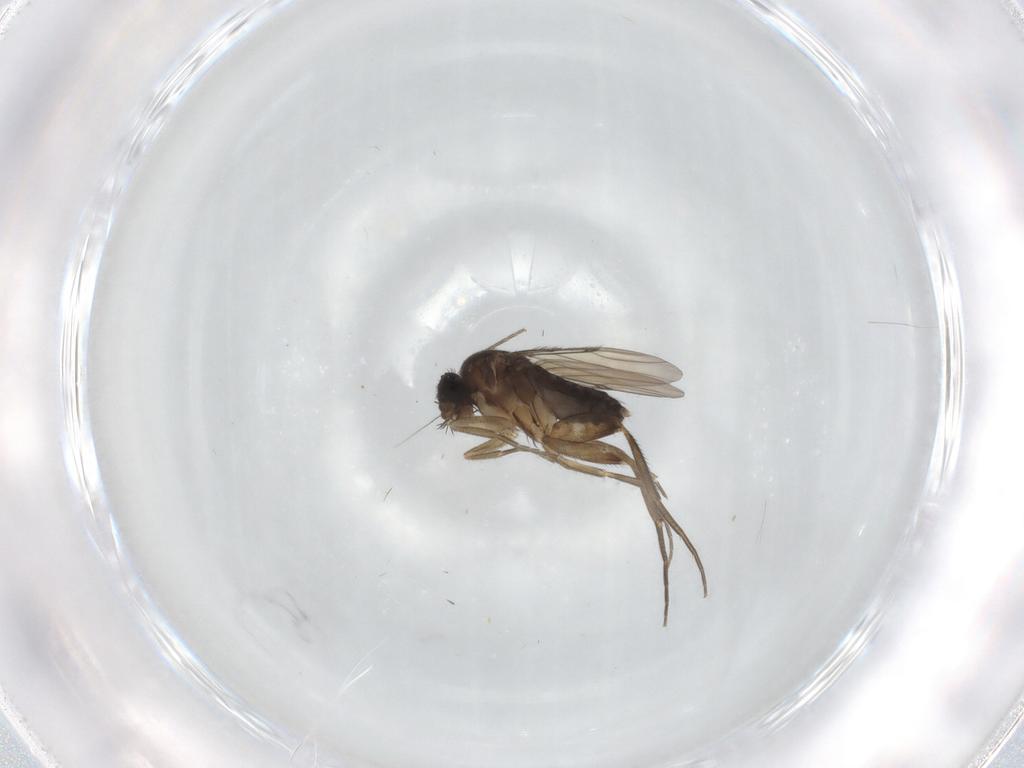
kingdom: Animalia
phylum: Arthropoda
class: Insecta
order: Diptera
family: Phoridae
